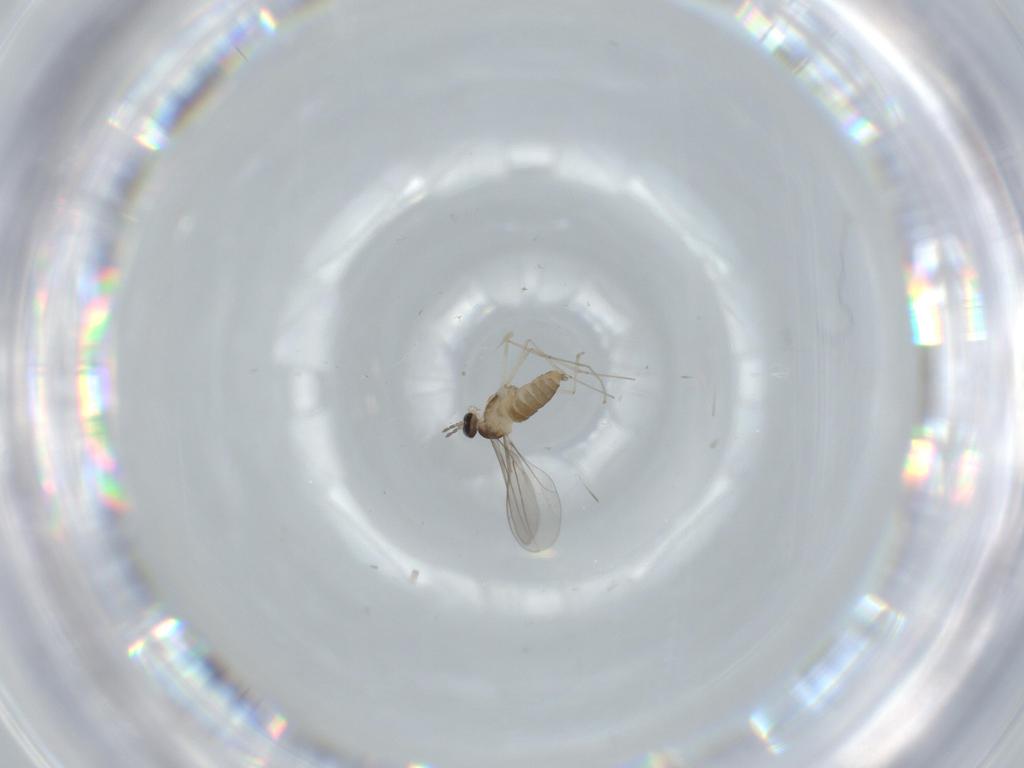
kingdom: Animalia
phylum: Arthropoda
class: Insecta
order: Diptera
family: Cecidomyiidae
